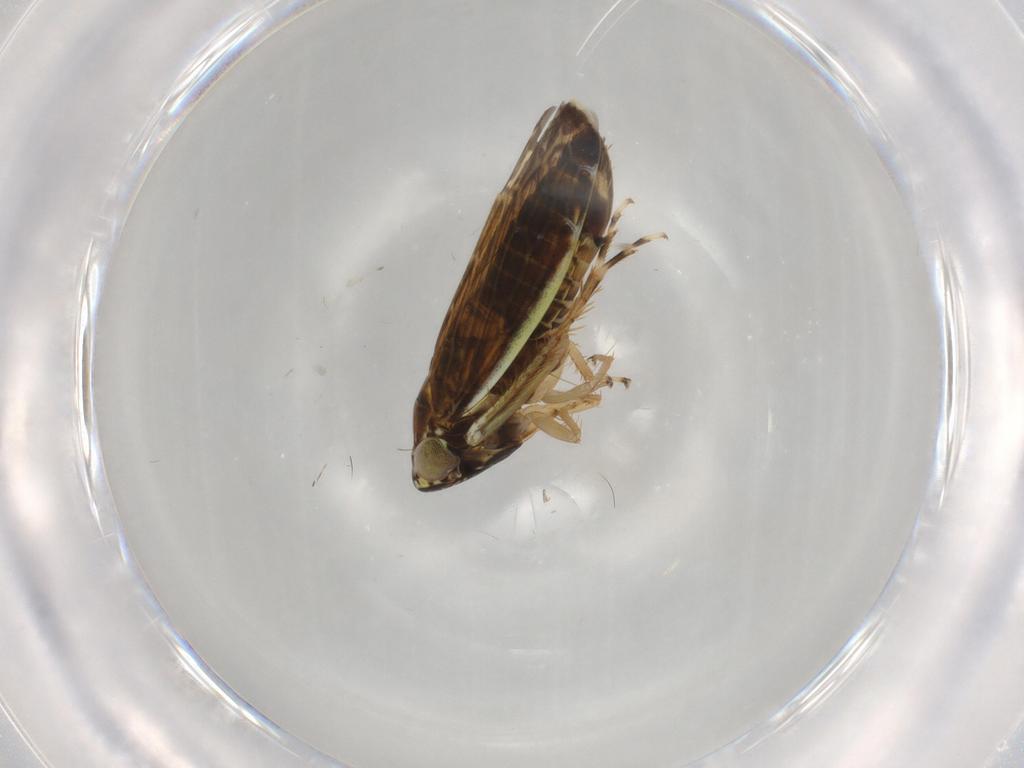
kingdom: Animalia
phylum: Arthropoda
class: Insecta
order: Hemiptera
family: Cicadellidae
